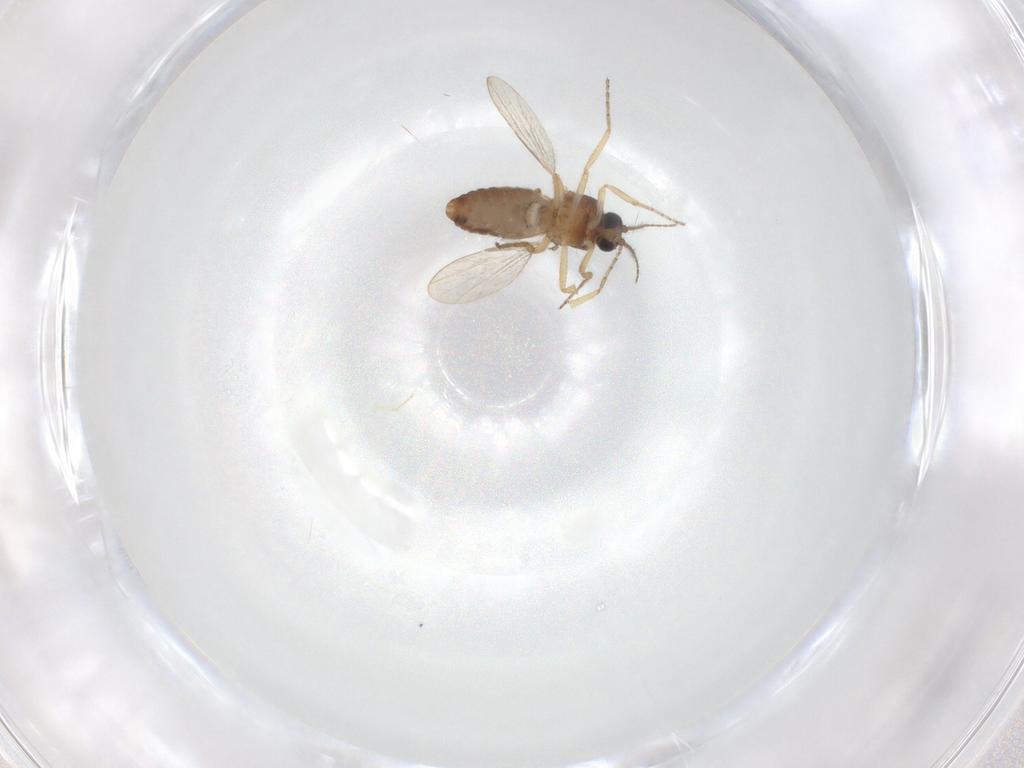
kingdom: Animalia
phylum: Arthropoda
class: Insecta
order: Diptera
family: Ceratopogonidae
